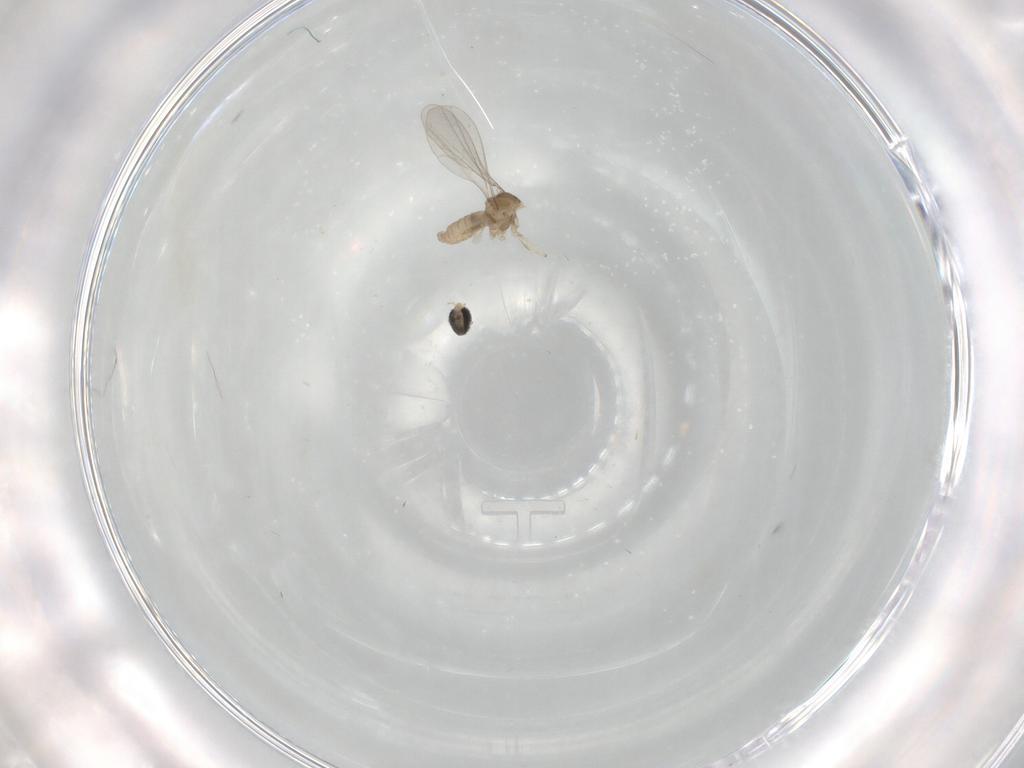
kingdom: Animalia
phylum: Arthropoda
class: Insecta
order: Diptera
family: Cecidomyiidae
